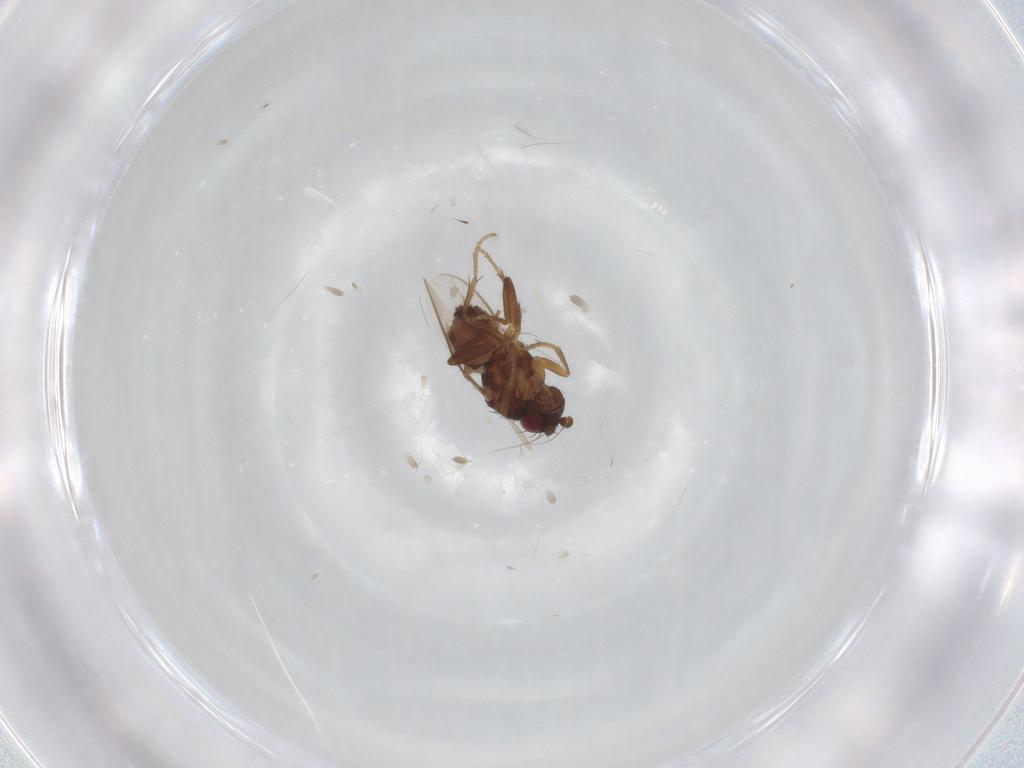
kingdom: Animalia
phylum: Arthropoda
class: Insecta
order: Diptera
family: Sphaeroceridae
